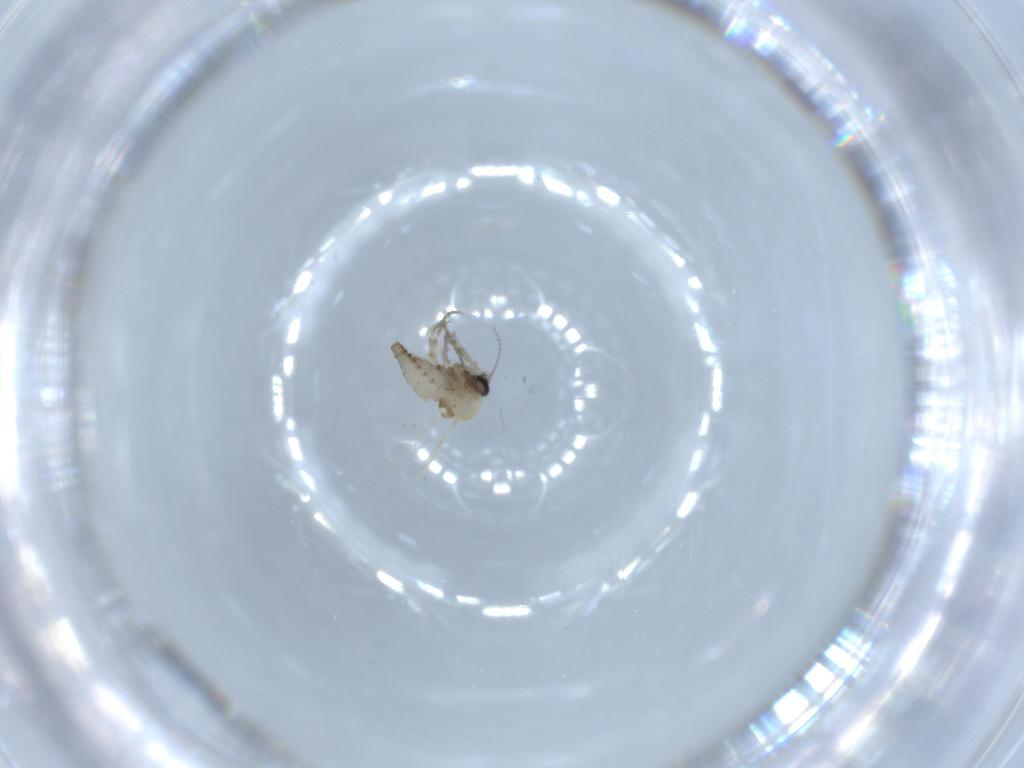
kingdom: Animalia
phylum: Arthropoda
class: Insecta
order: Diptera
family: Ceratopogonidae
